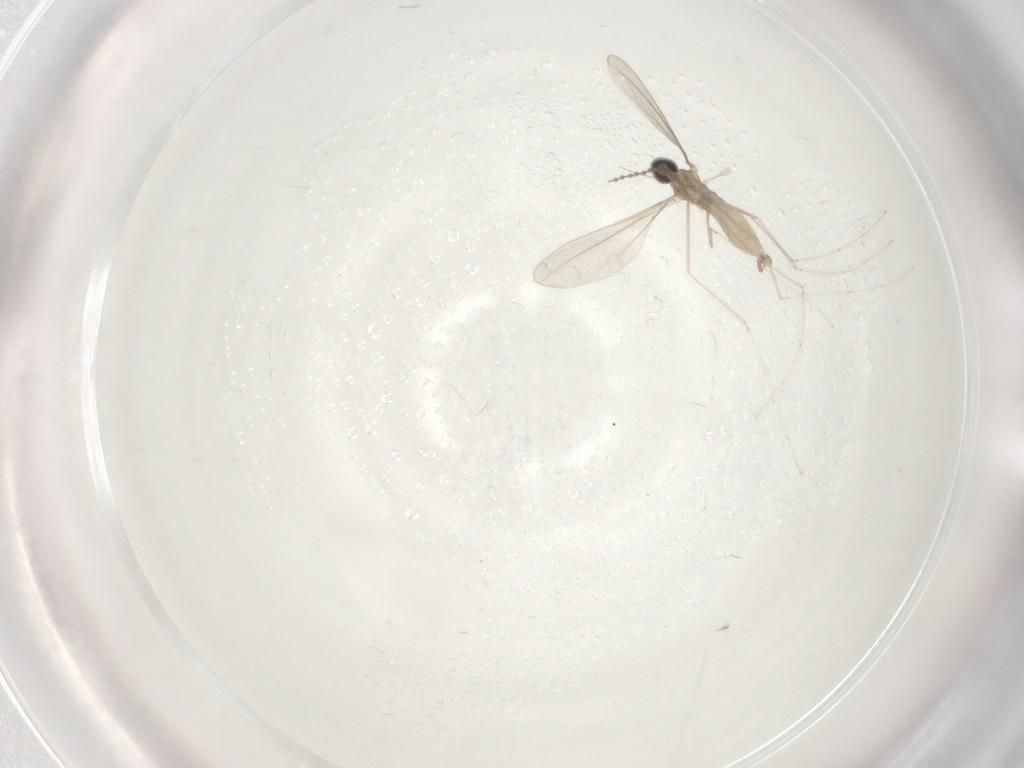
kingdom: Animalia
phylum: Arthropoda
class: Insecta
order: Diptera
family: Cecidomyiidae
